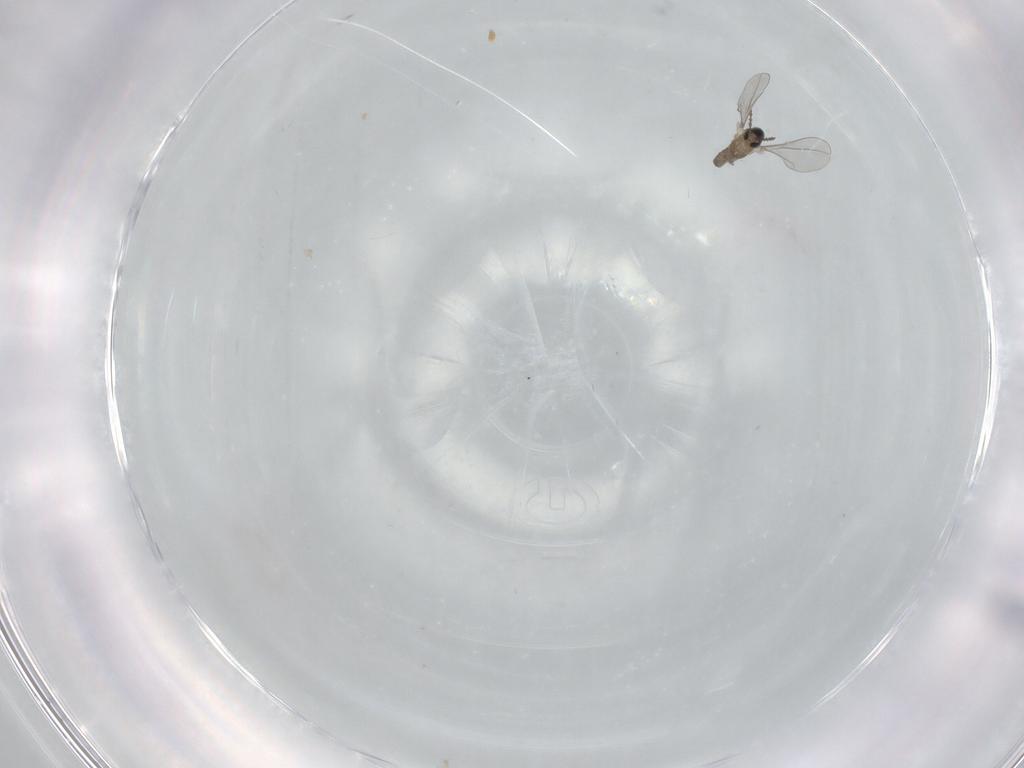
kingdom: Animalia
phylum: Arthropoda
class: Insecta
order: Diptera
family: Cecidomyiidae
